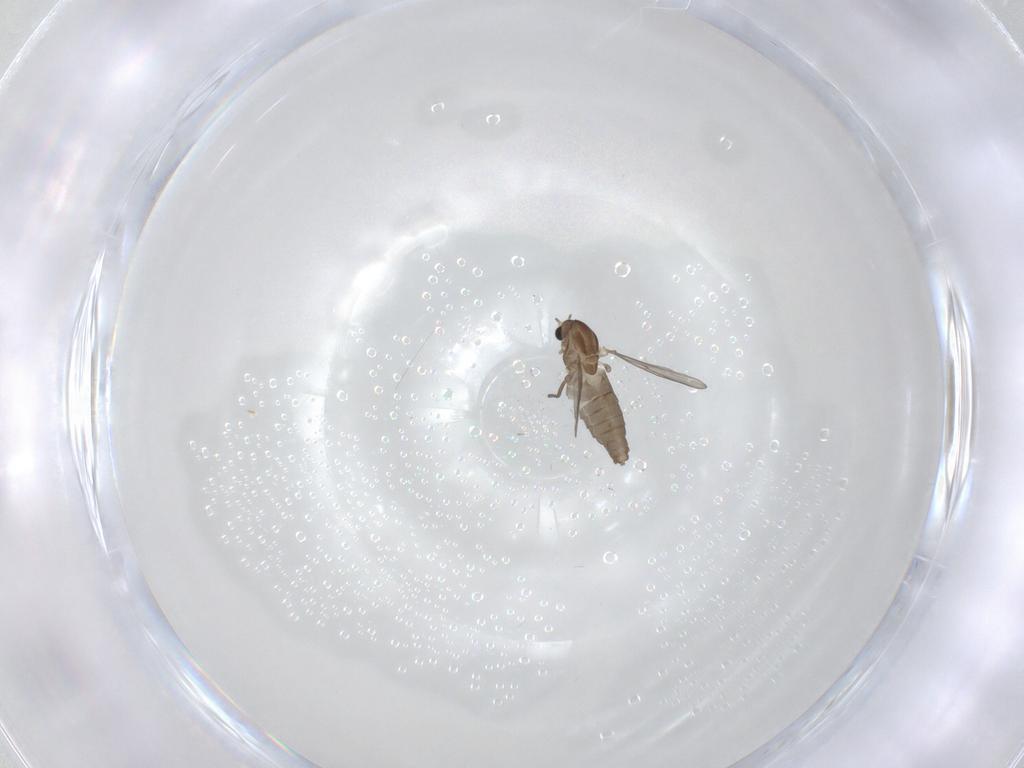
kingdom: Animalia
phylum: Arthropoda
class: Insecta
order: Diptera
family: Chironomidae
